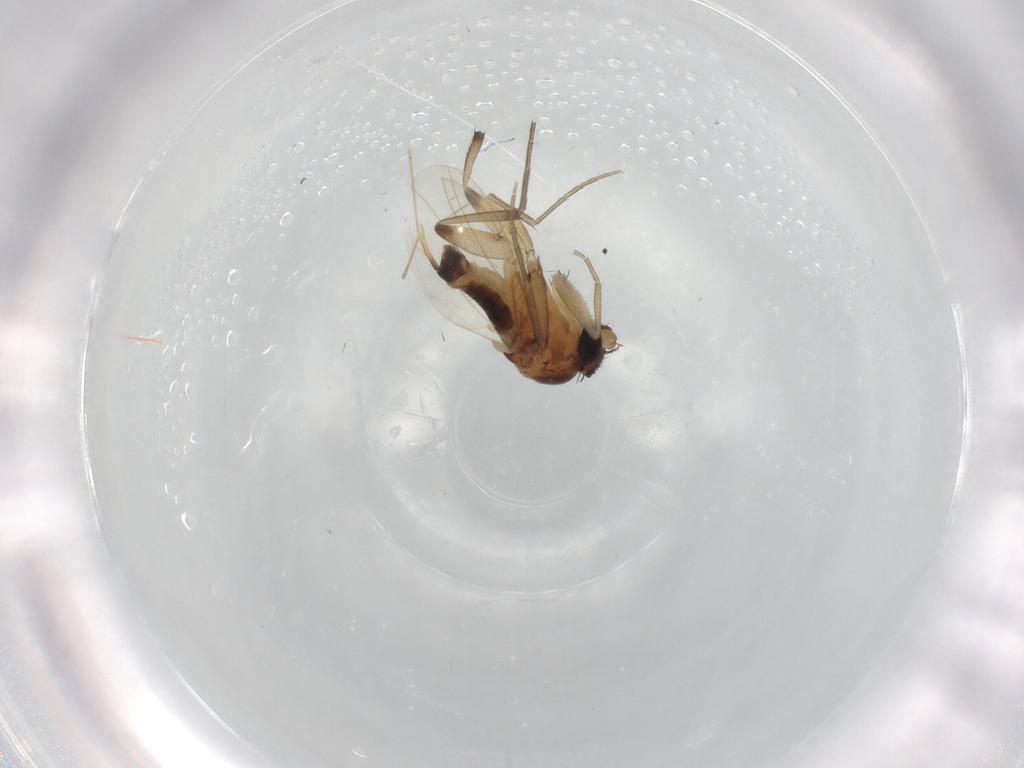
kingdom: Animalia
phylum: Arthropoda
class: Insecta
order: Diptera
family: Phoridae
